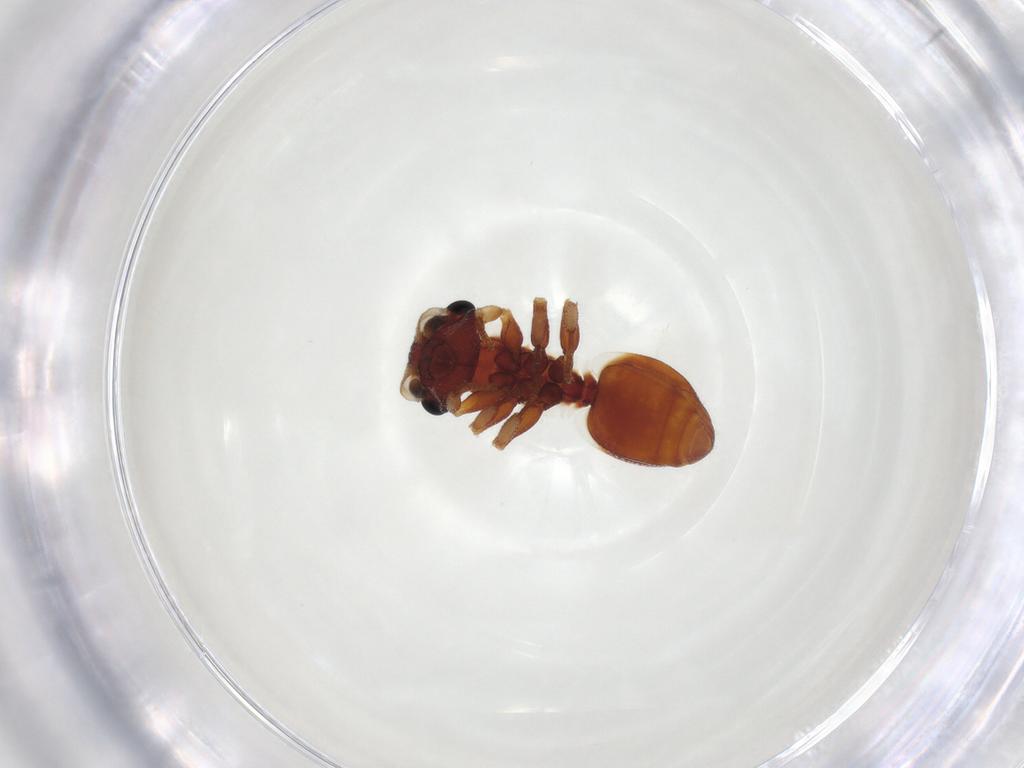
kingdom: Animalia
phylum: Arthropoda
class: Insecta
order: Hymenoptera
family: Formicidae
